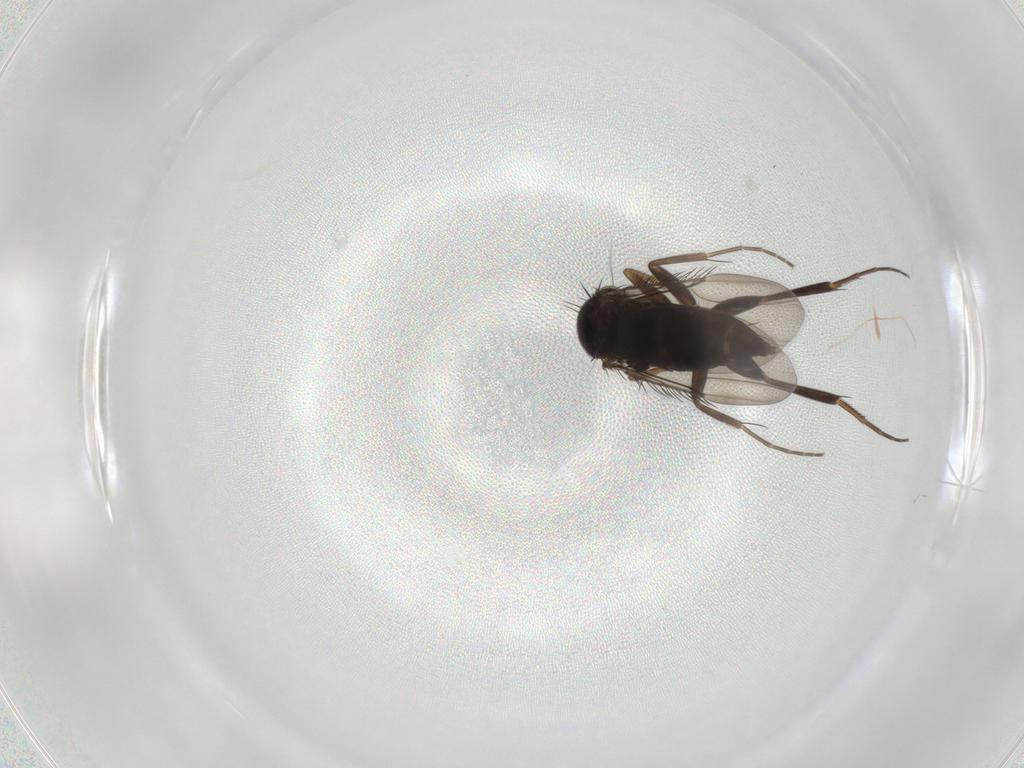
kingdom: Animalia
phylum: Arthropoda
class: Insecta
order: Diptera
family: Phoridae
